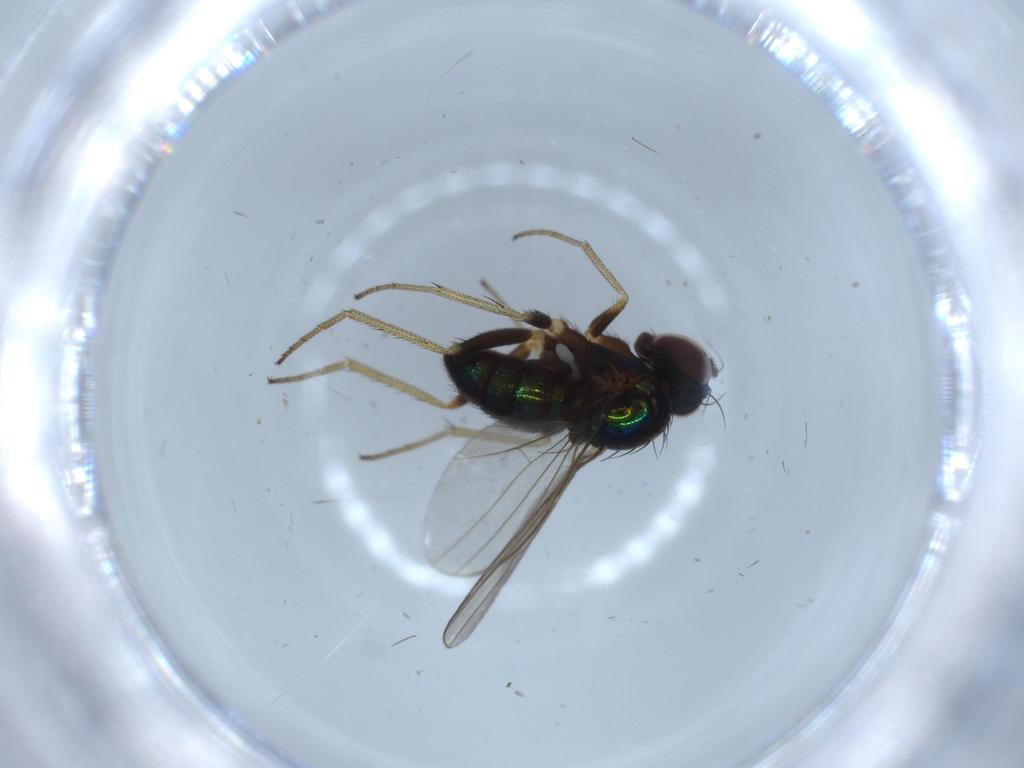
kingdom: Animalia
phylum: Arthropoda
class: Insecta
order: Diptera
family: Dolichopodidae
